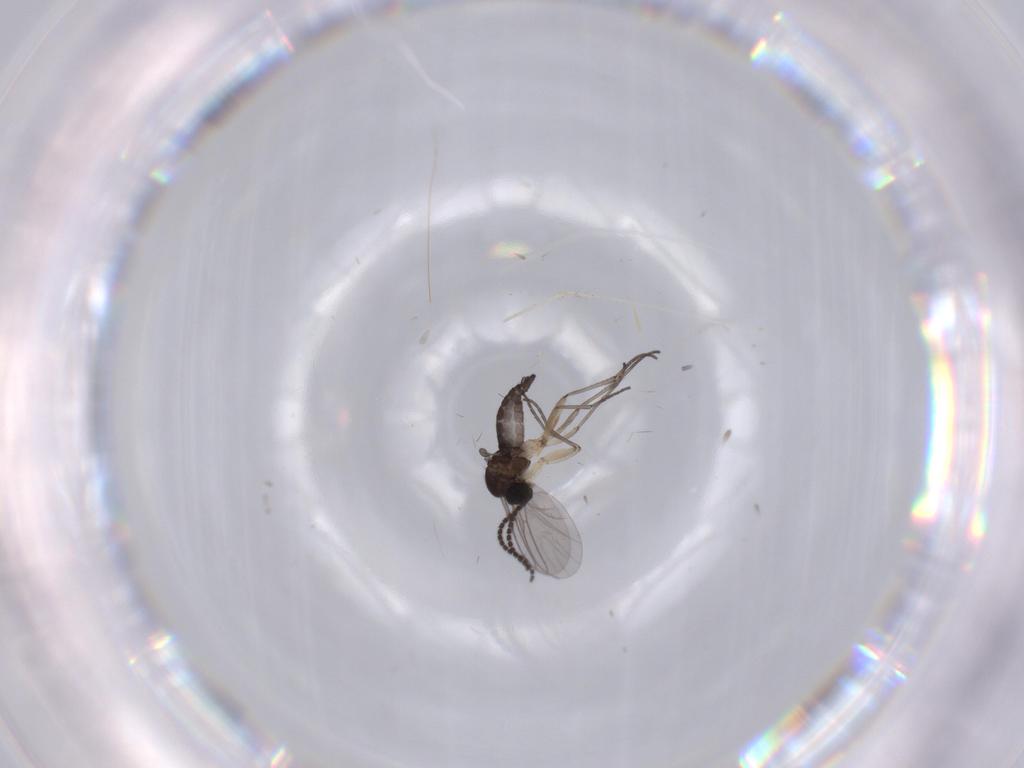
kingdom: Animalia
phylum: Arthropoda
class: Insecta
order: Diptera
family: Sciaridae
